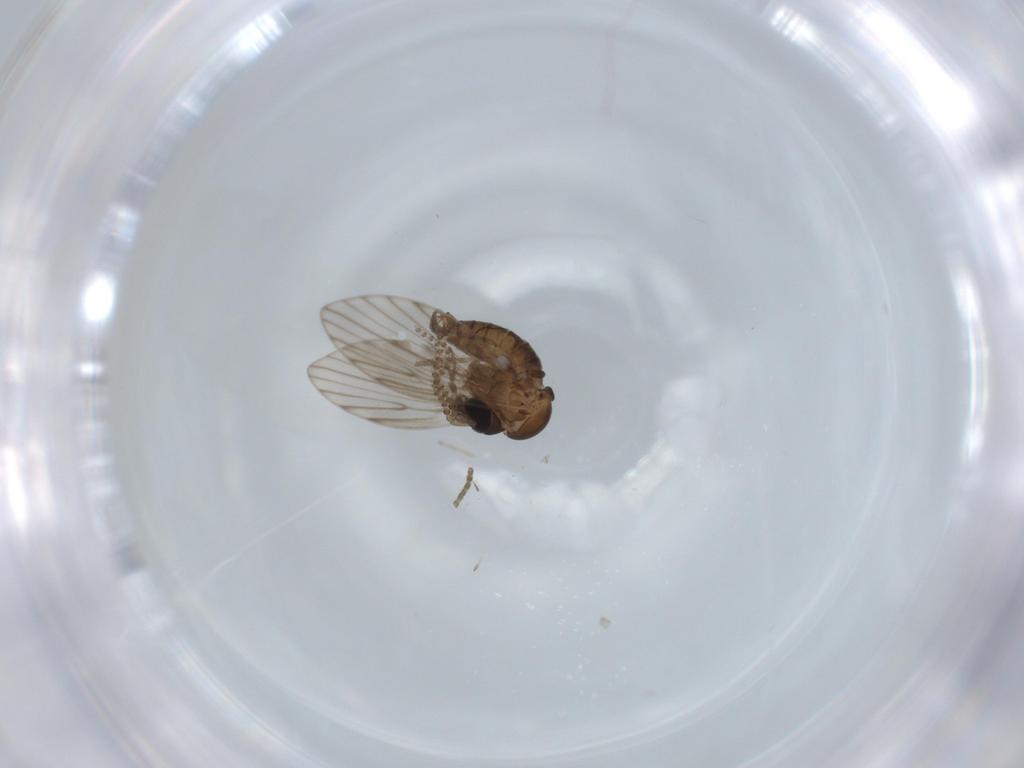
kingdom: Animalia
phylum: Arthropoda
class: Insecta
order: Diptera
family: Psychodidae
